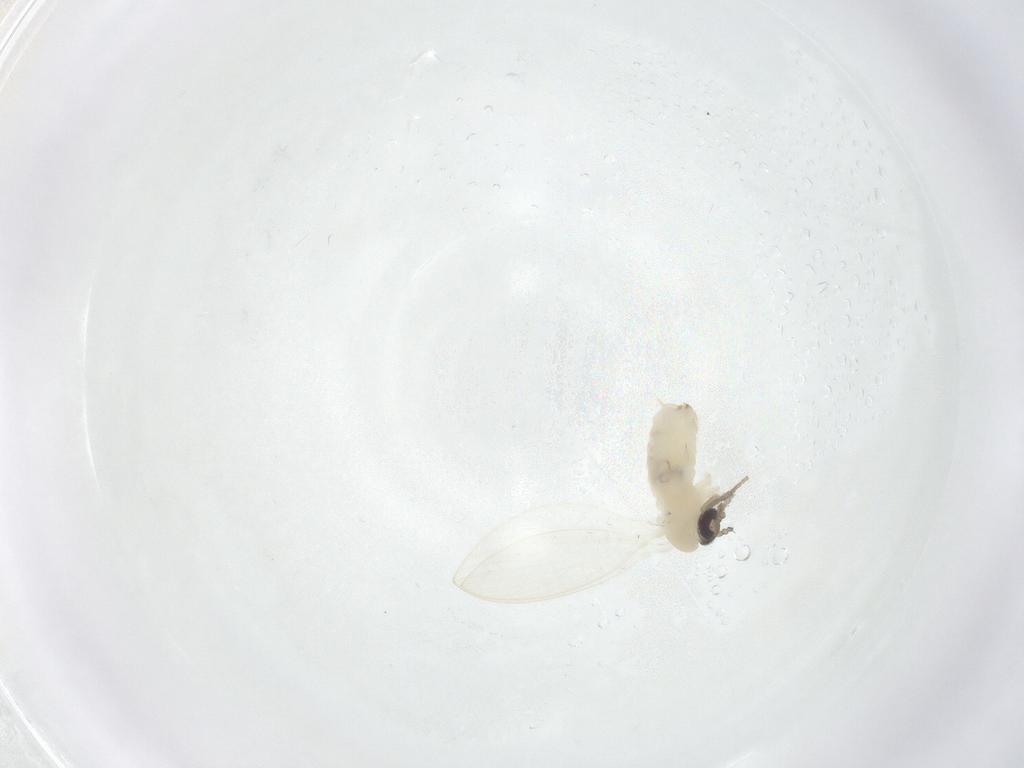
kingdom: Animalia
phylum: Arthropoda
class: Insecta
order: Diptera
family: Psychodidae
